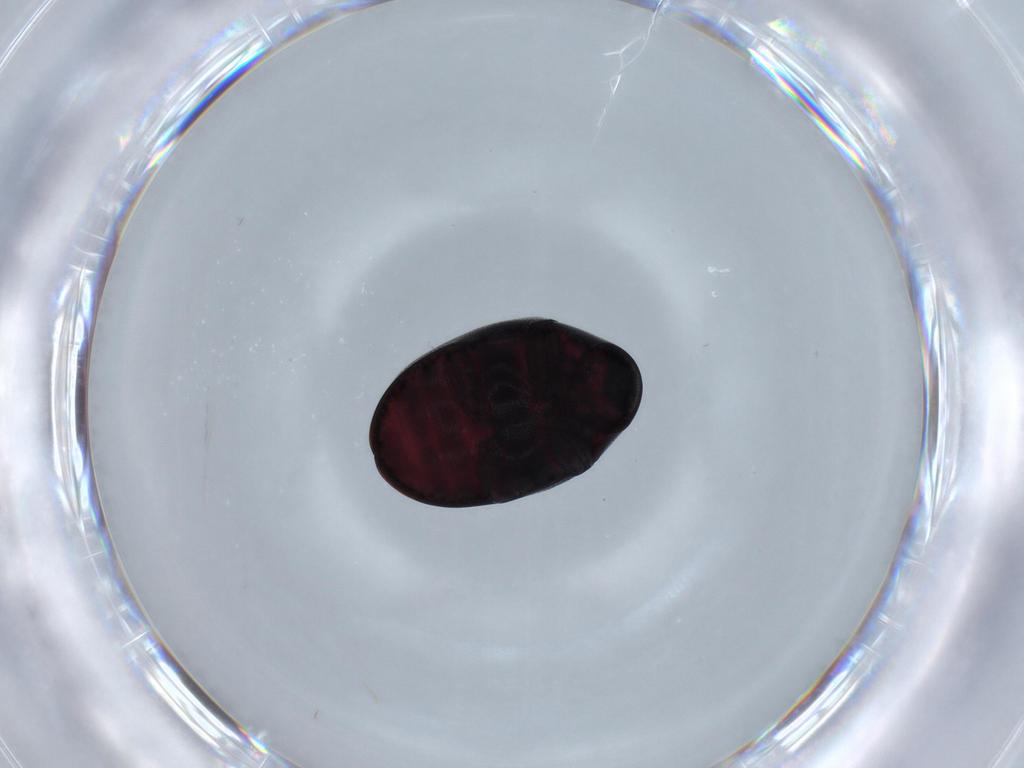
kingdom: Animalia
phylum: Arthropoda
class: Insecta
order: Coleoptera
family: Ptinidae
